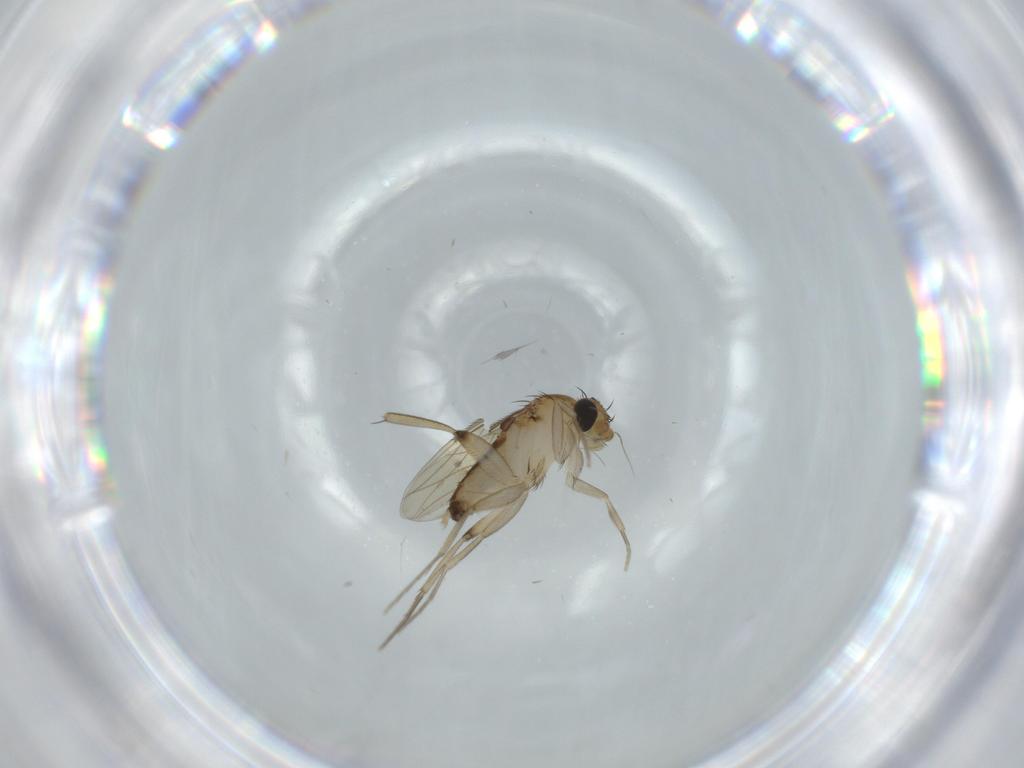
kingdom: Animalia
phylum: Arthropoda
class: Insecta
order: Diptera
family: Phoridae
